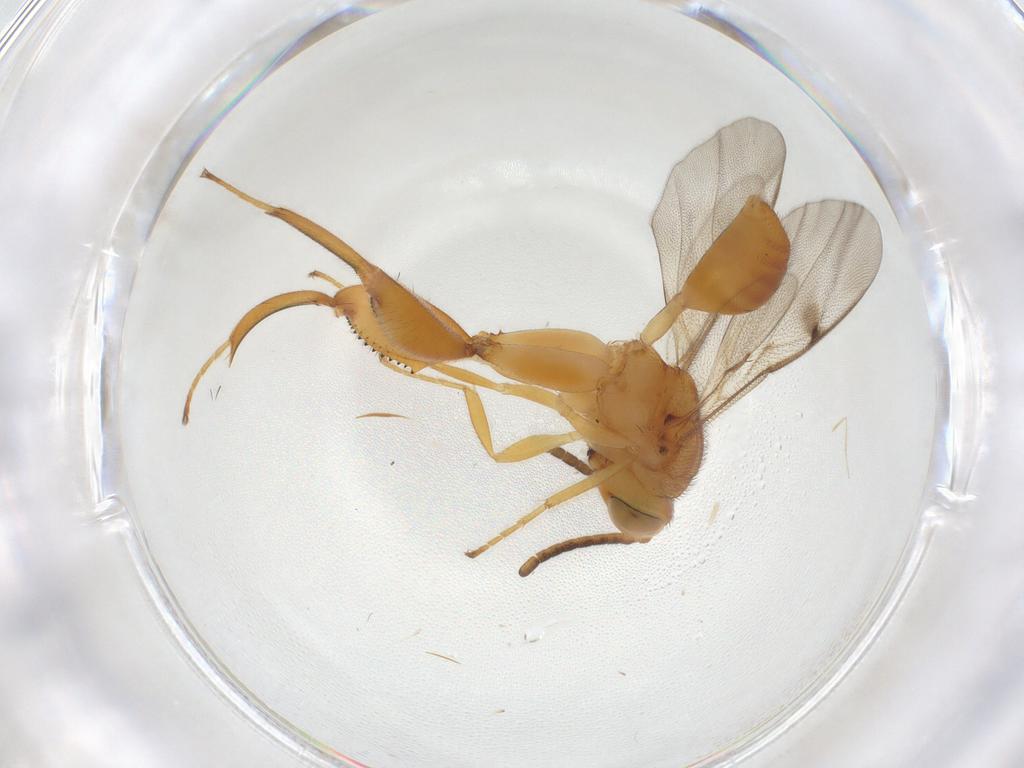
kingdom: Animalia
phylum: Arthropoda
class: Insecta
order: Hymenoptera
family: Chalcididae
